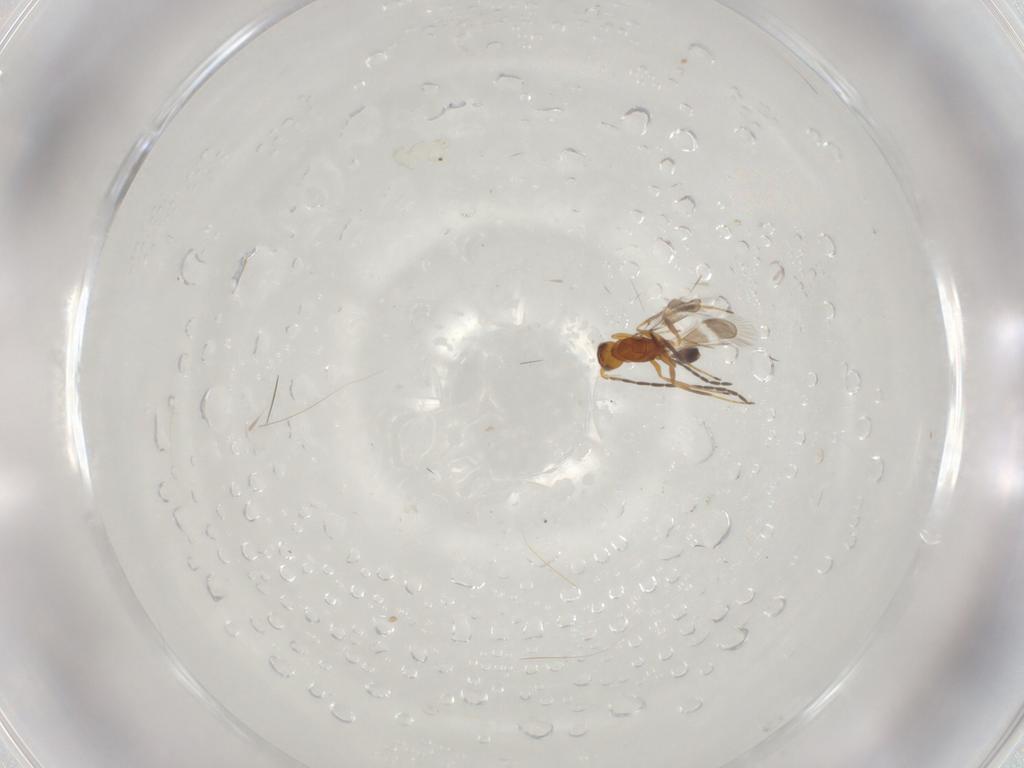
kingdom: Animalia
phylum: Arthropoda
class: Insecta
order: Hymenoptera
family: Mymaridae
